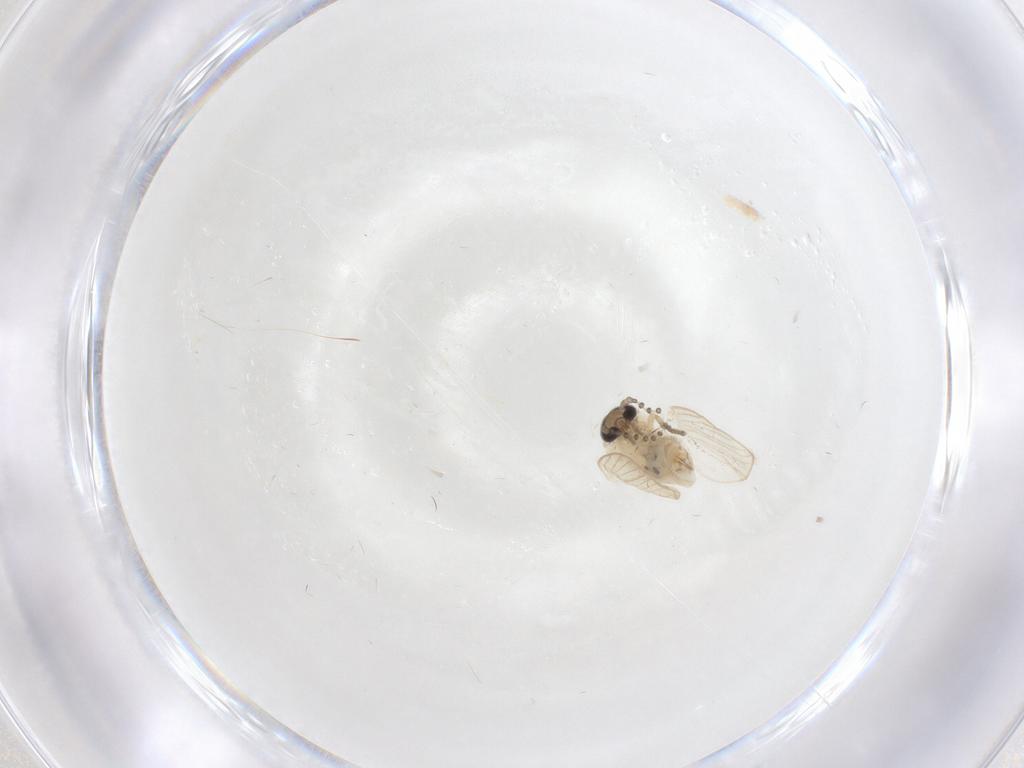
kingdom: Animalia
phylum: Arthropoda
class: Insecta
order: Diptera
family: Psychodidae
